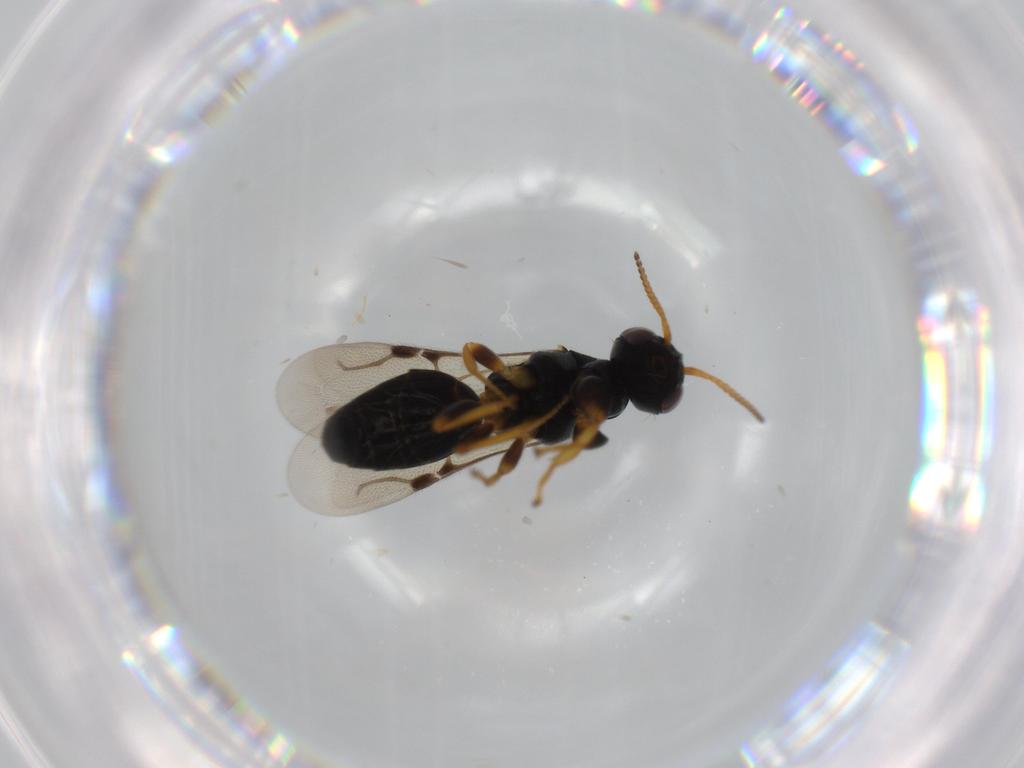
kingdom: Animalia
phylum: Arthropoda
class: Insecta
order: Hymenoptera
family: Bethylidae
